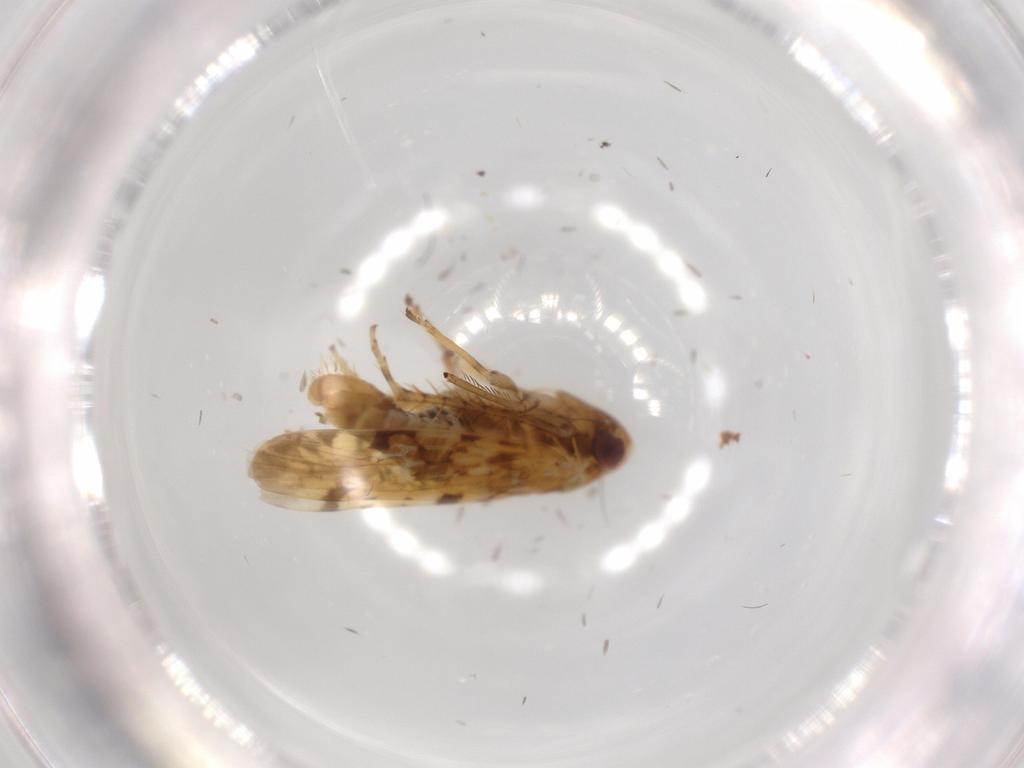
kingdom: Animalia
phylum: Arthropoda
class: Insecta
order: Hemiptera
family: Cicadellidae
